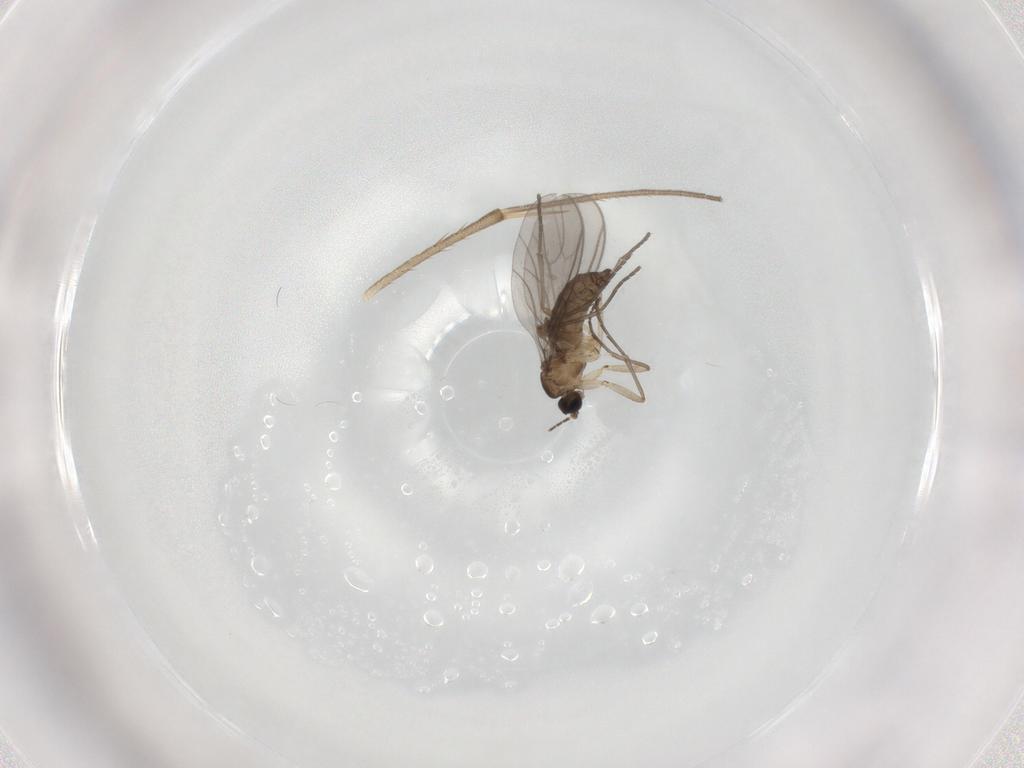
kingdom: Animalia
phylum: Arthropoda
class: Insecta
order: Diptera
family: Sciaridae
